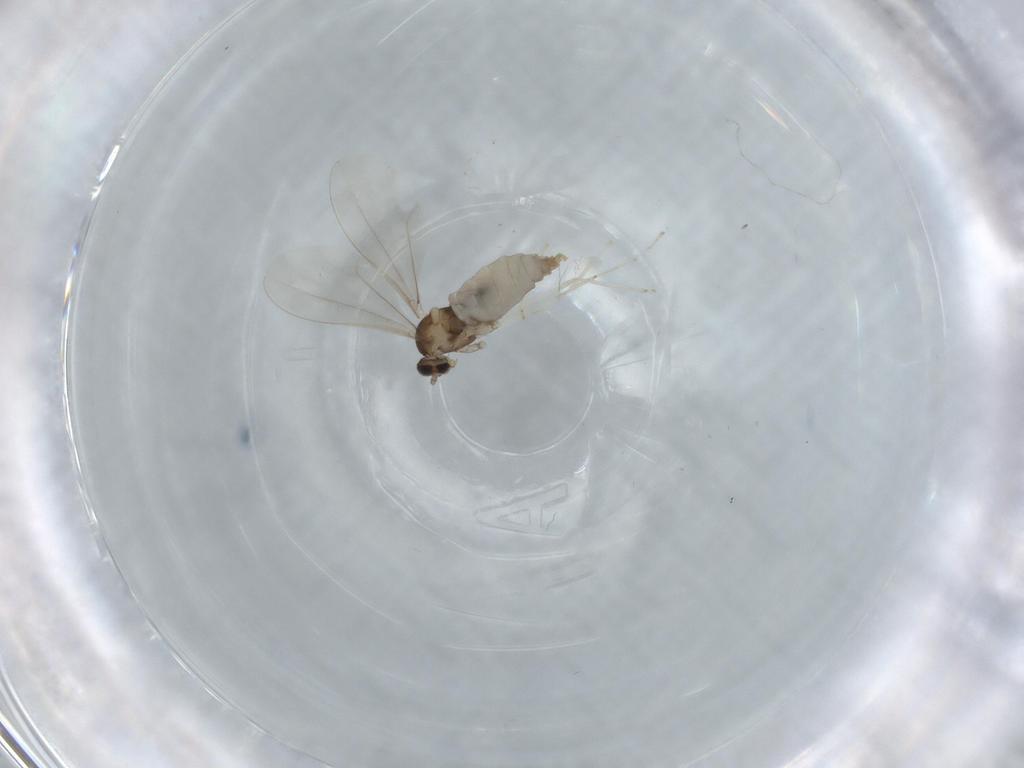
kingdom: Animalia
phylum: Arthropoda
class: Insecta
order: Diptera
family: Cecidomyiidae
